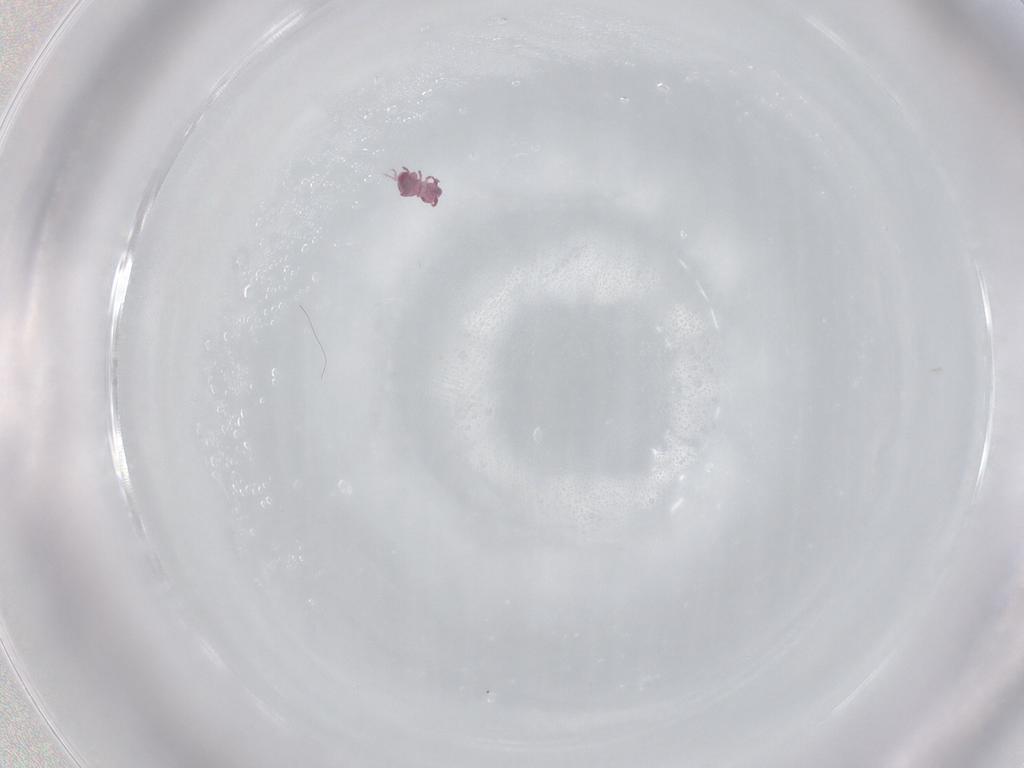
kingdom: Animalia
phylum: Arthropoda
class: Collembola
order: Symphypleona
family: Sminthurididae
